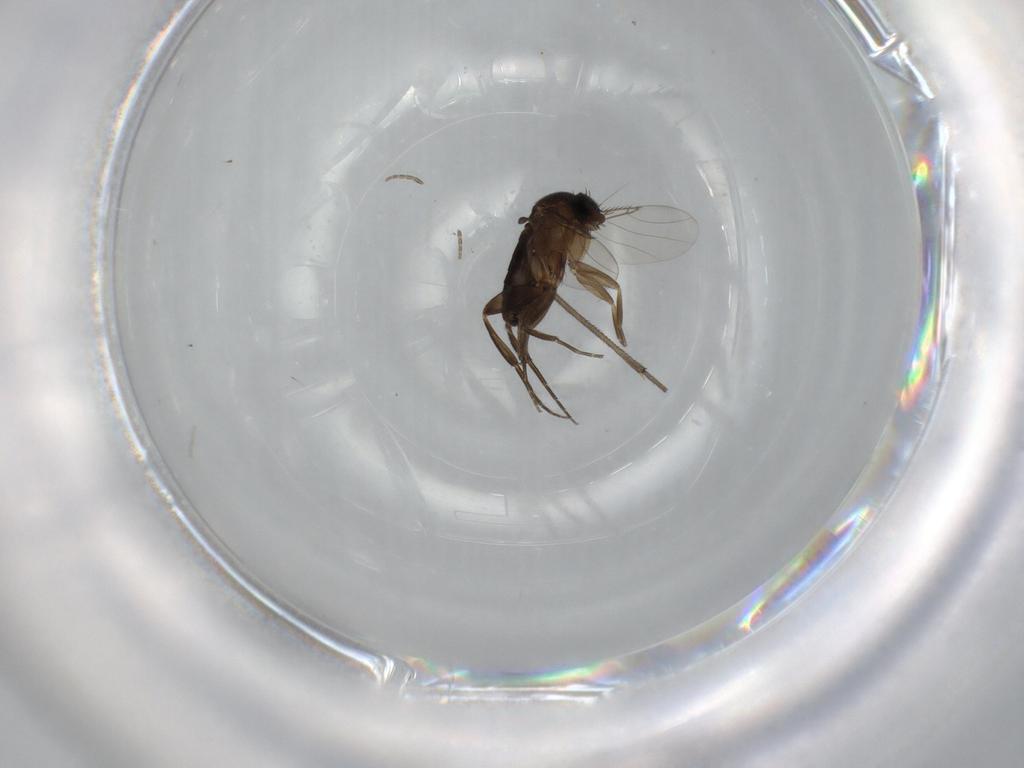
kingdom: Animalia
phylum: Arthropoda
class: Insecta
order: Diptera
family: Phoridae
